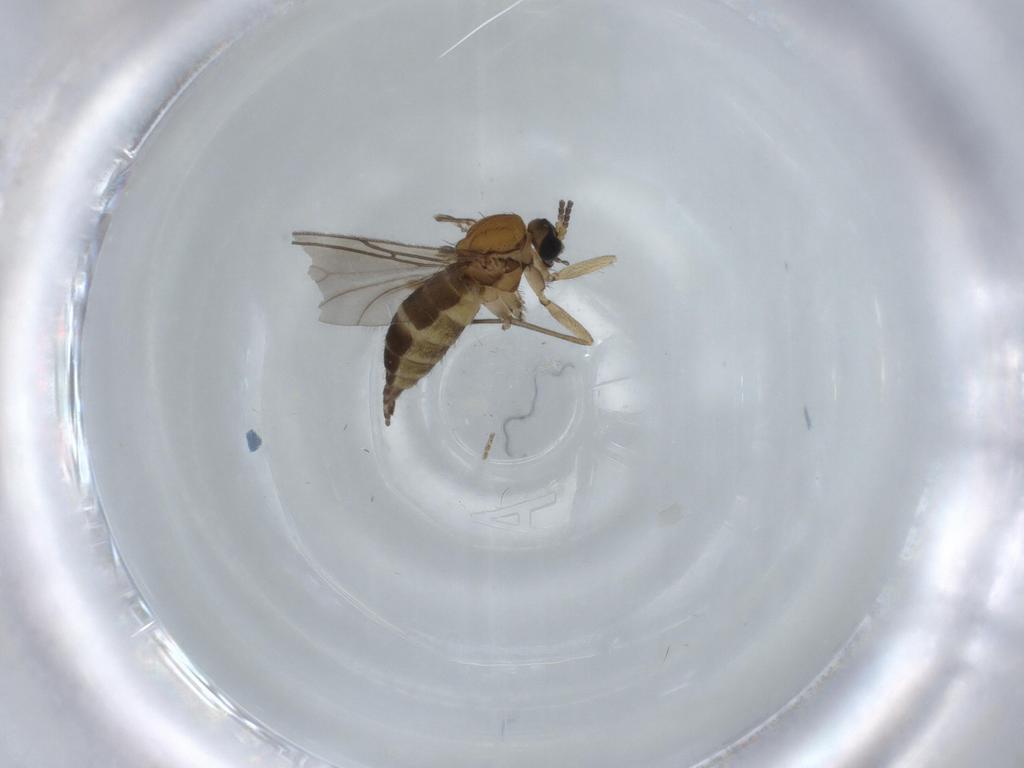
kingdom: Animalia
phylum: Arthropoda
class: Insecta
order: Diptera
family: Sciaridae
